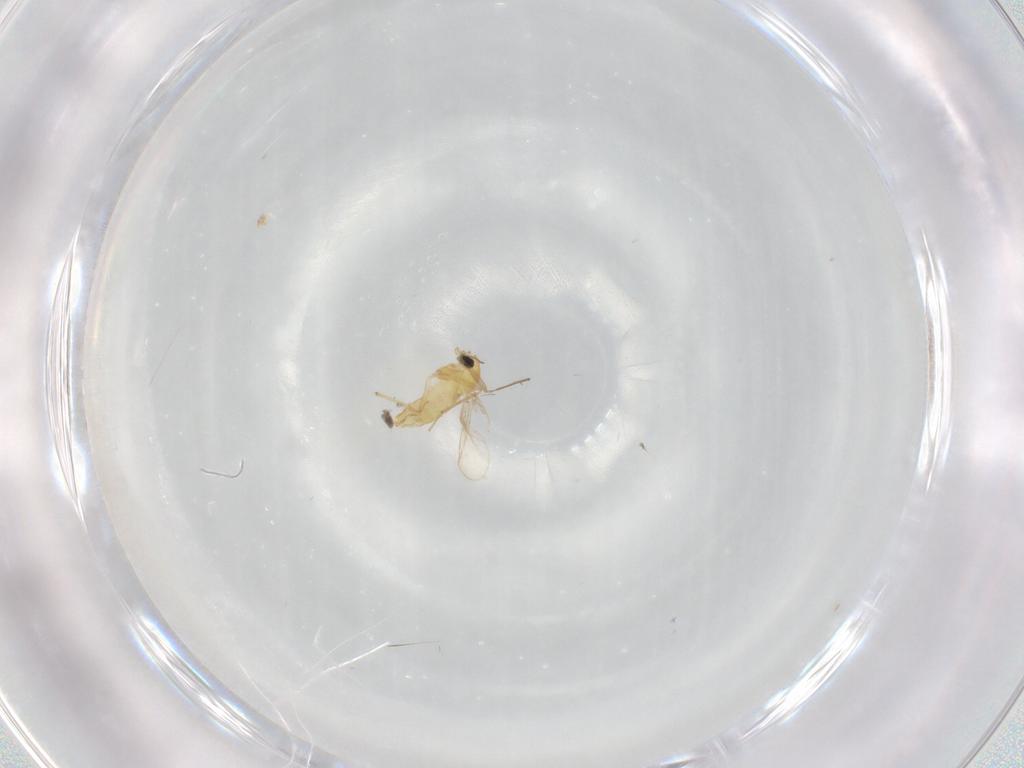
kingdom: Animalia
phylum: Arthropoda
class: Insecta
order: Diptera
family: Chironomidae
